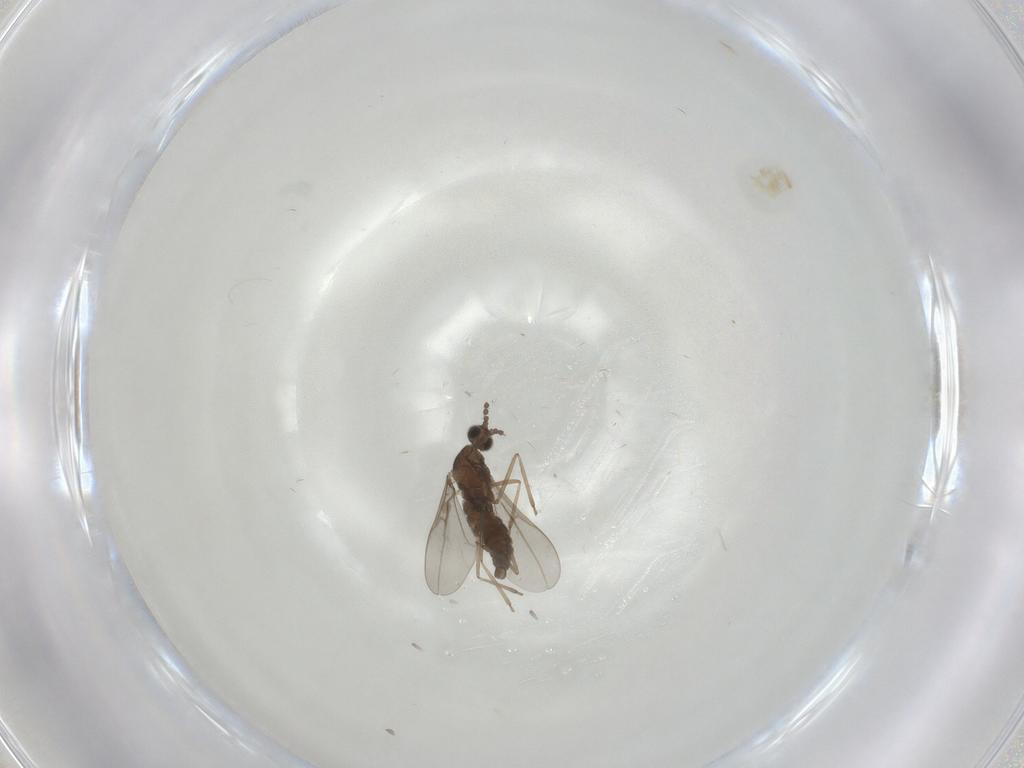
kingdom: Animalia
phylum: Arthropoda
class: Insecta
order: Diptera
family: Cecidomyiidae
